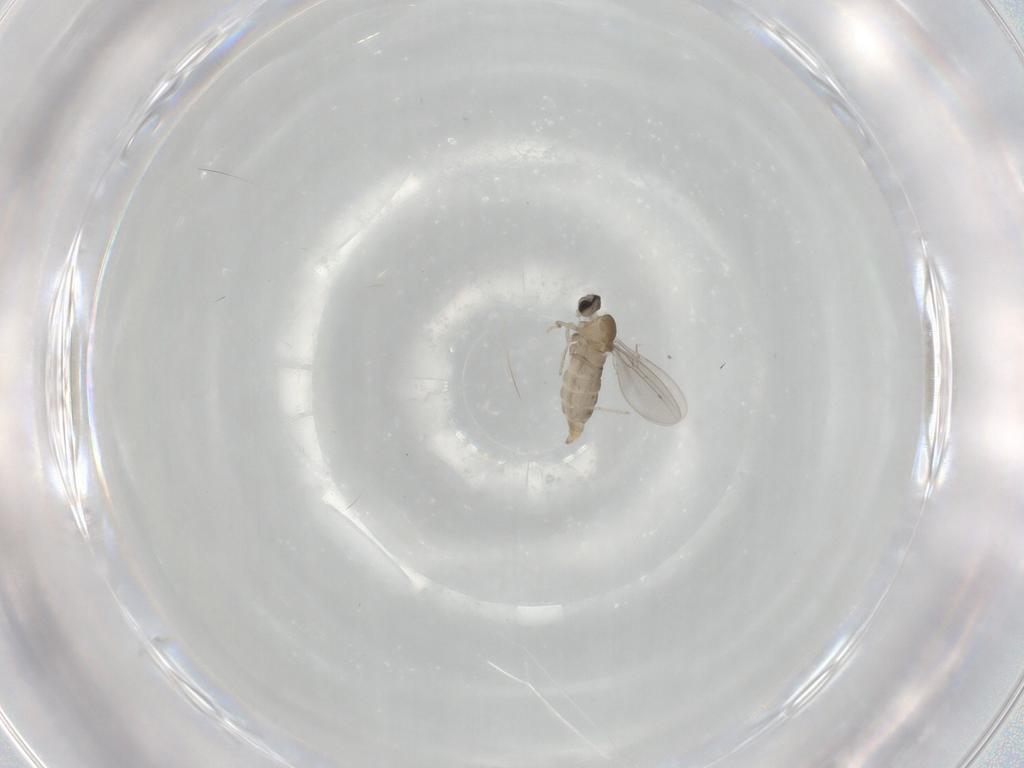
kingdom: Animalia
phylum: Arthropoda
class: Insecta
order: Diptera
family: Cecidomyiidae
